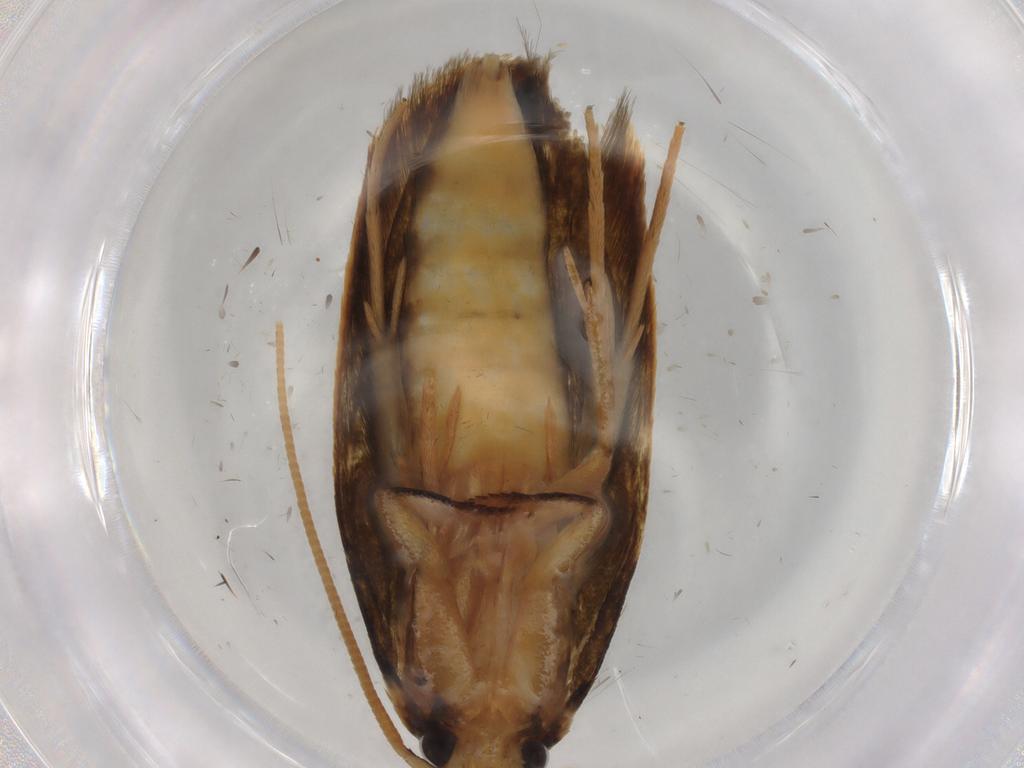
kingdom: Animalia
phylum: Arthropoda
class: Insecta
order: Lepidoptera
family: Tineidae
